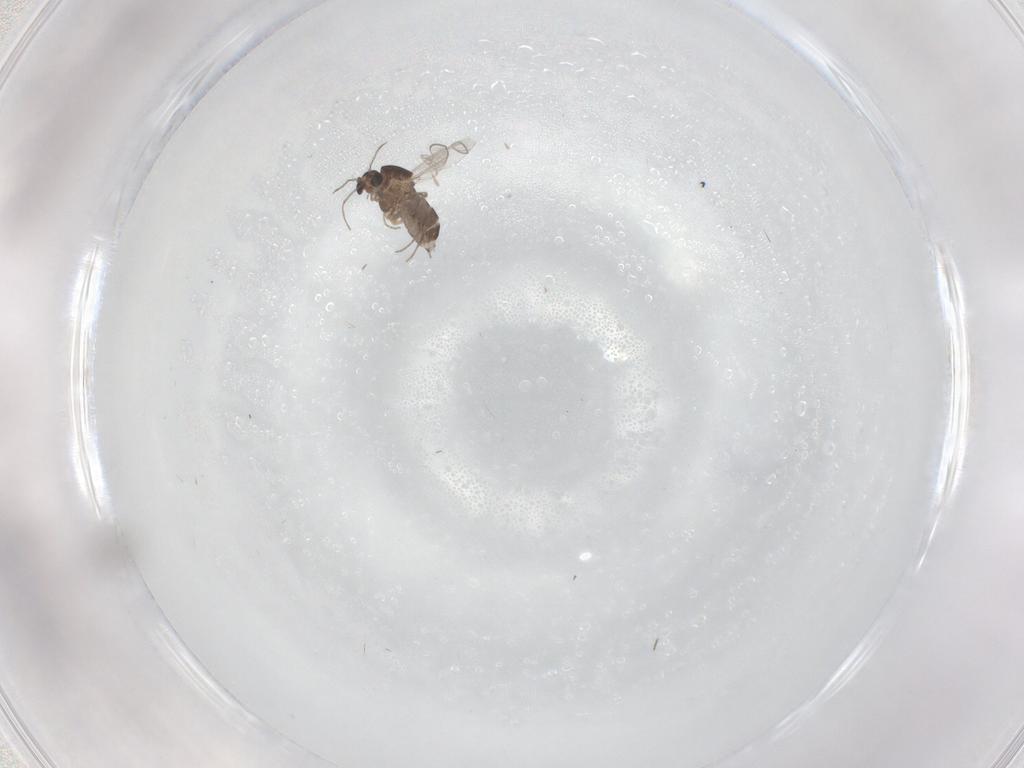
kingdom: Animalia
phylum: Arthropoda
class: Insecta
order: Diptera
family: Chironomidae
